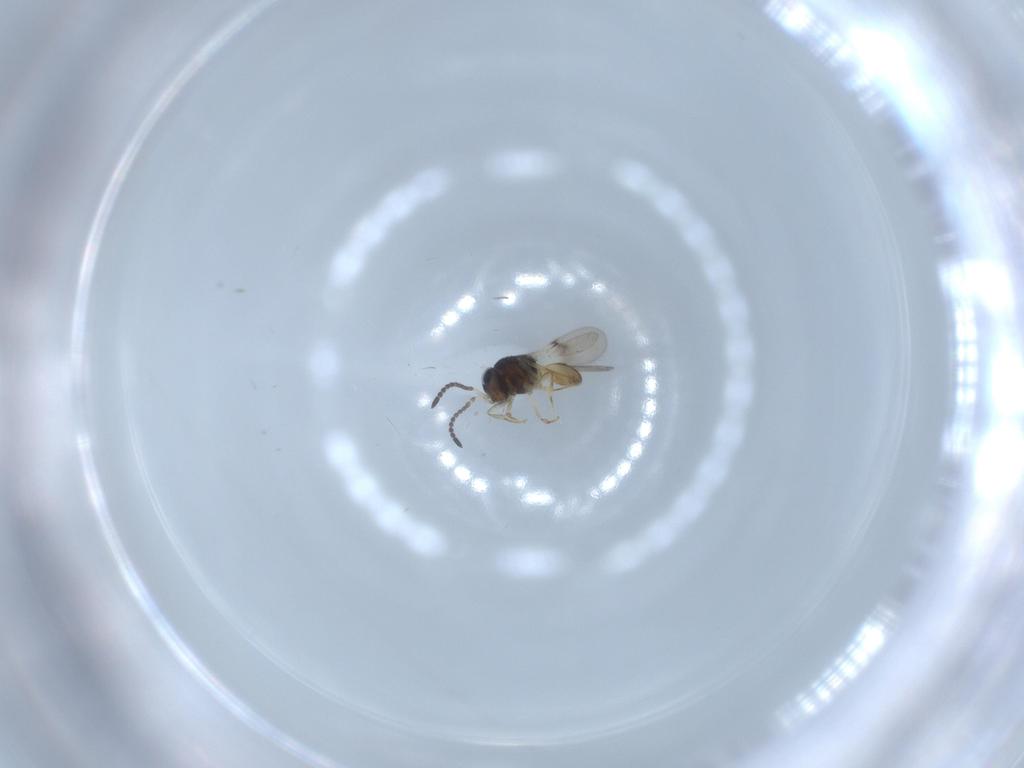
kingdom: Animalia
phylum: Arthropoda
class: Insecta
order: Hymenoptera
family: Scelionidae
